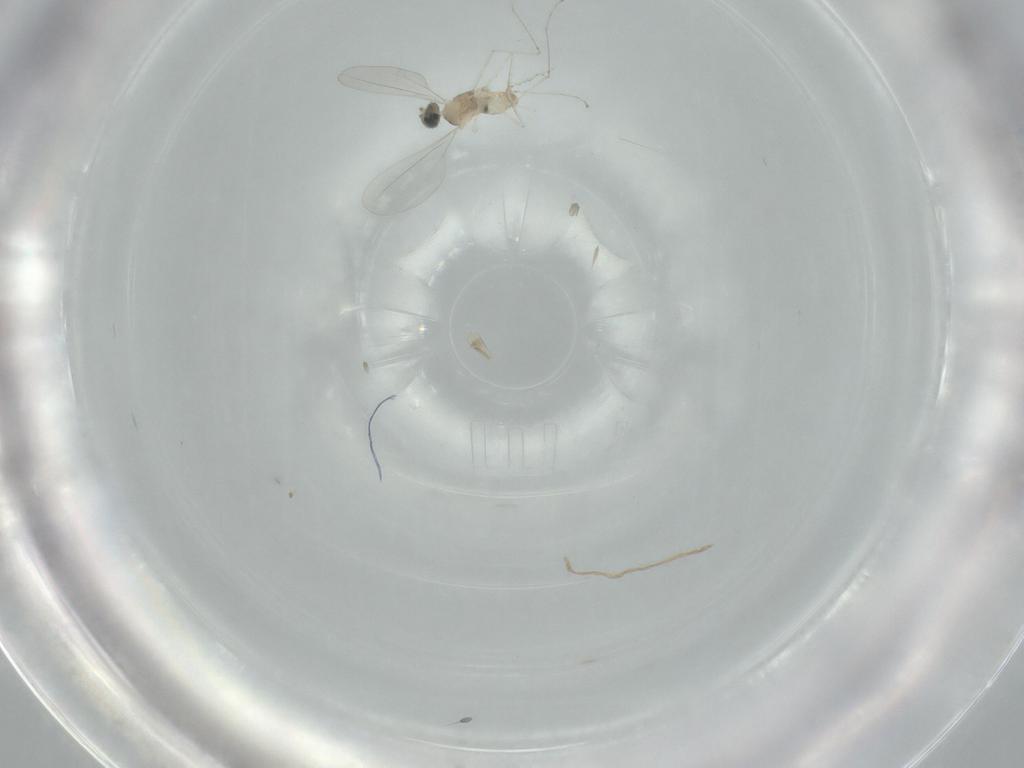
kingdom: Animalia
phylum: Arthropoda
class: Insecta
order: Diptera
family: Cecidomyiidae
